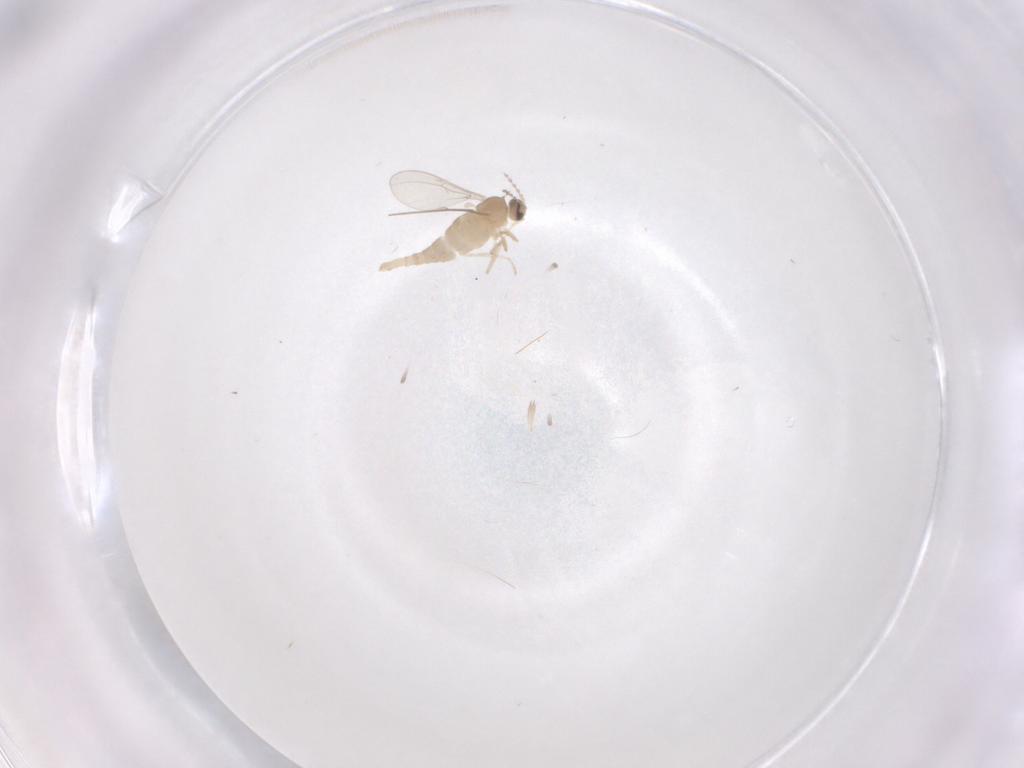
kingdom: Animalia
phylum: Arthropoda
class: Insecta
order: Diptera
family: Cecidomyiidae
